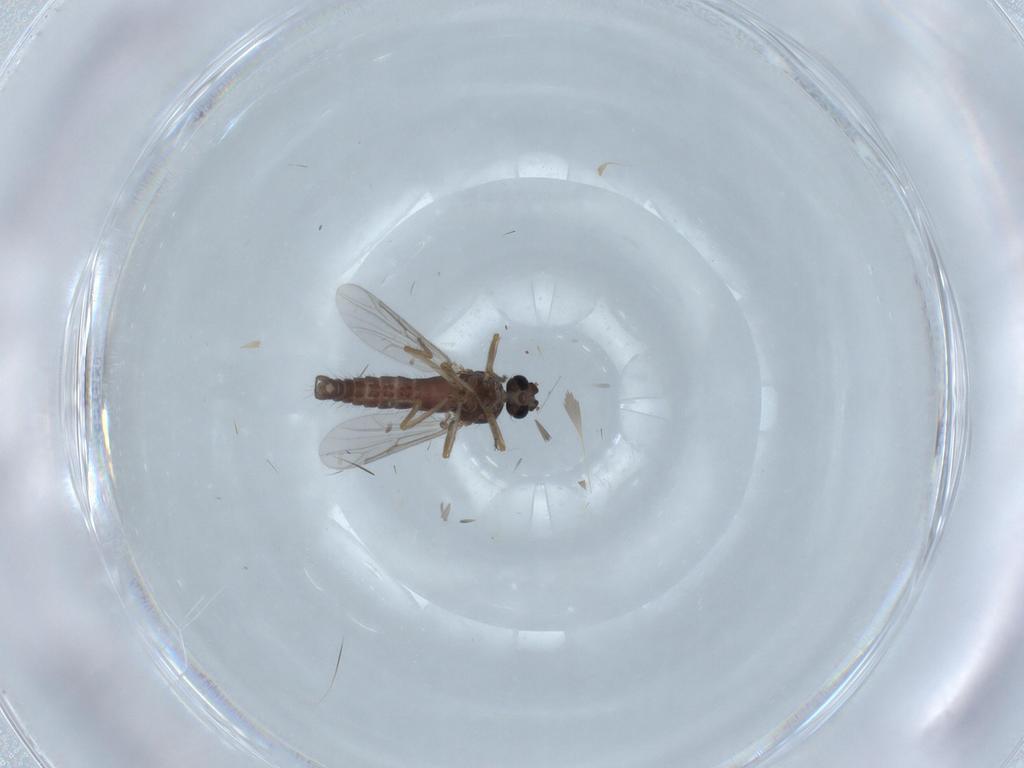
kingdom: Animalia
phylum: Arthropoda
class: Insecta
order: Diptera
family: Ceratopogonidae
